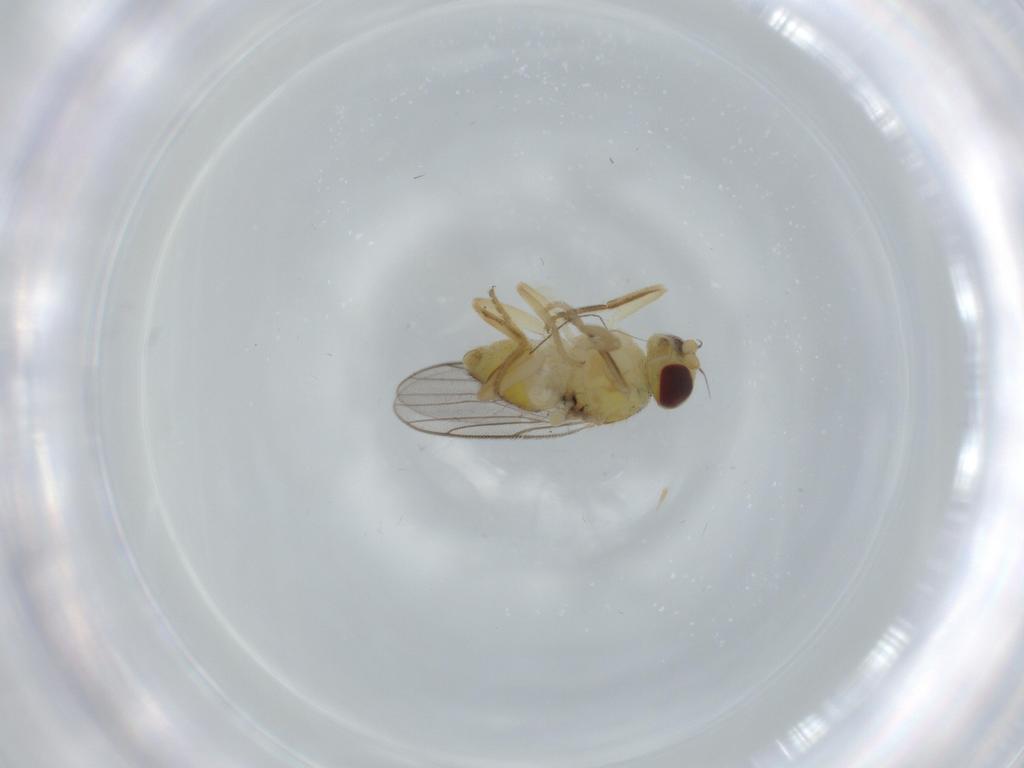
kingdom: Animalia
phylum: Arthropoda
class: Insecta
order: Diptera
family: Chloropidae
